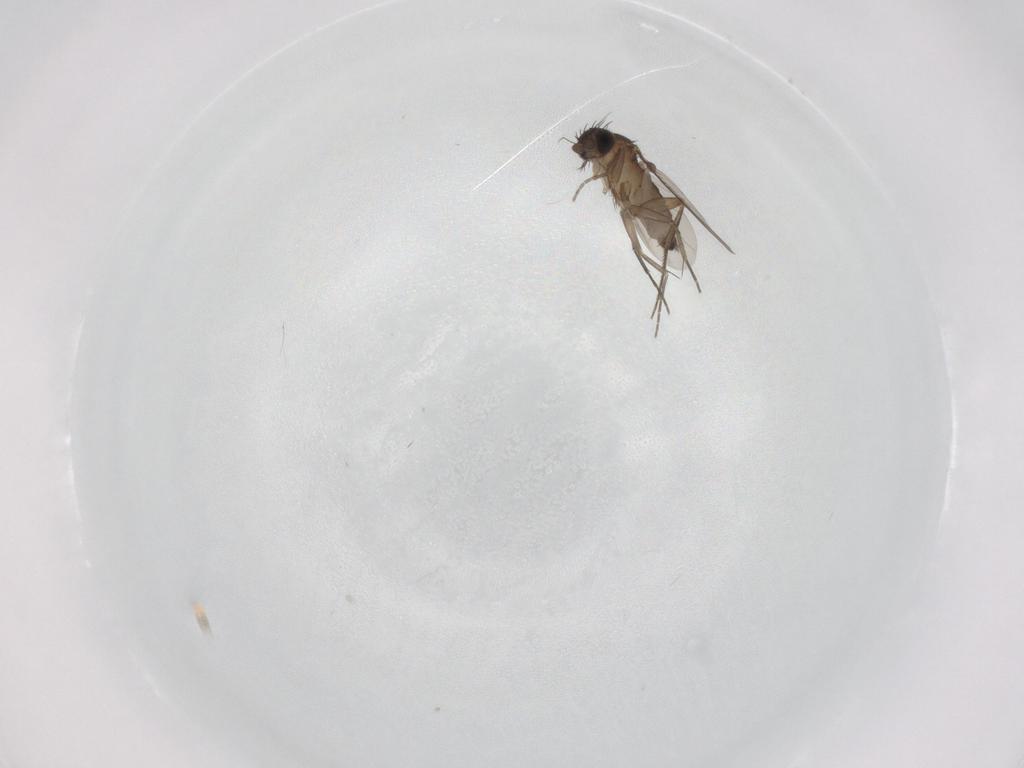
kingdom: Animalia
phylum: Arthropoda
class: Insecta
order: Diptera
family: Phoridae
